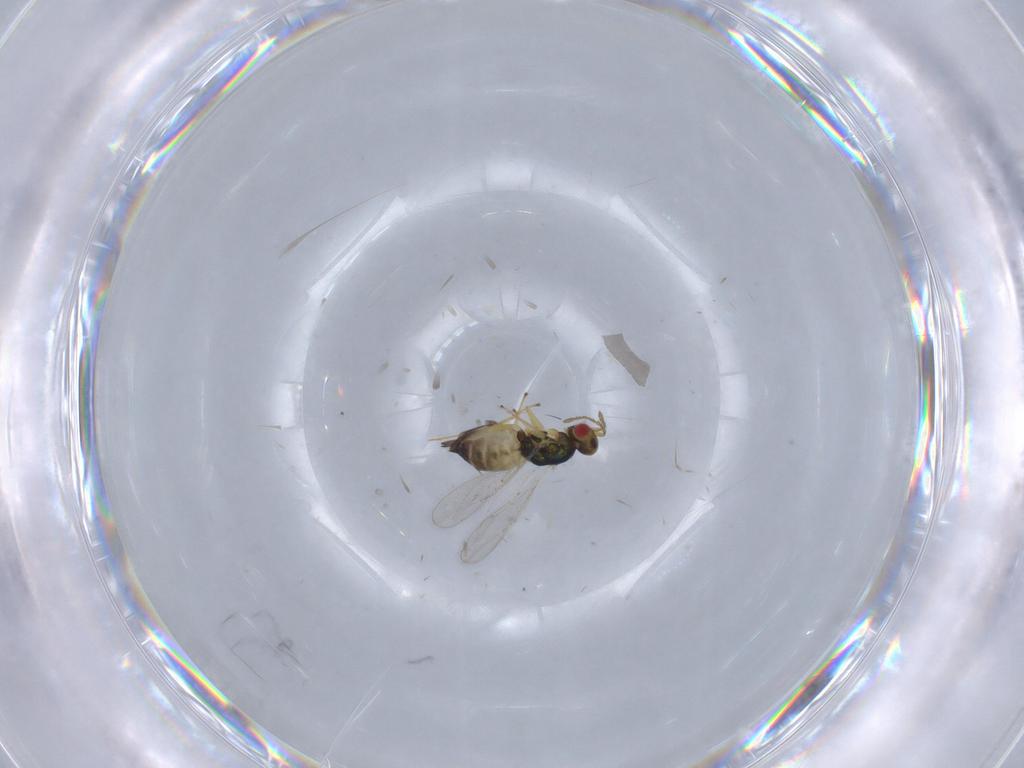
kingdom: Animalia
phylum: Arthropoda
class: Insecta
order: Hymenoptera
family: Eulophidae
